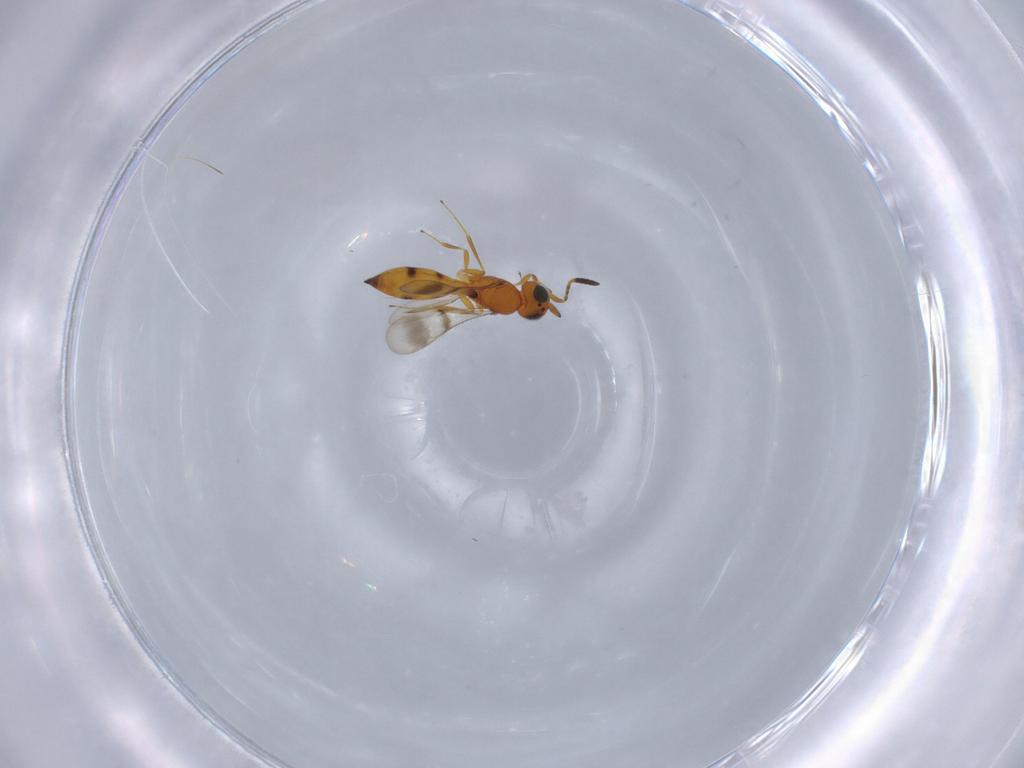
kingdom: Animalia
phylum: Arthropoda
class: Insecta
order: Hymenoptera
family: Scelionidae
